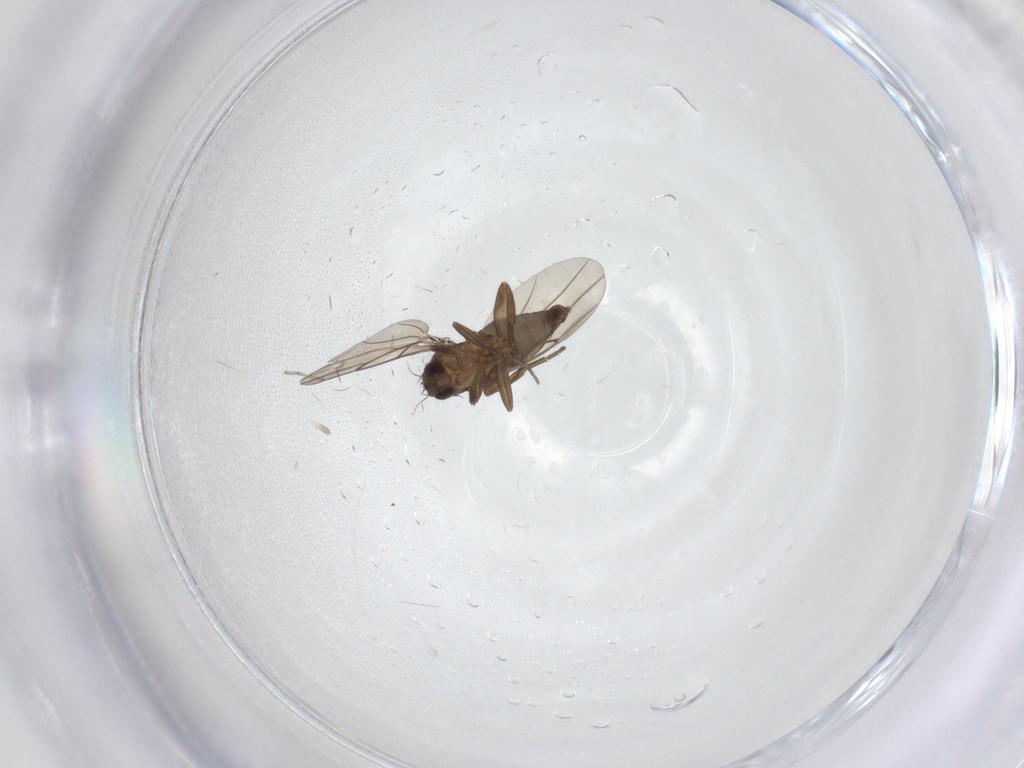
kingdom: Animalia
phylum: Arthropoda
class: Insecta
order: Diptera
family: Phoridae
